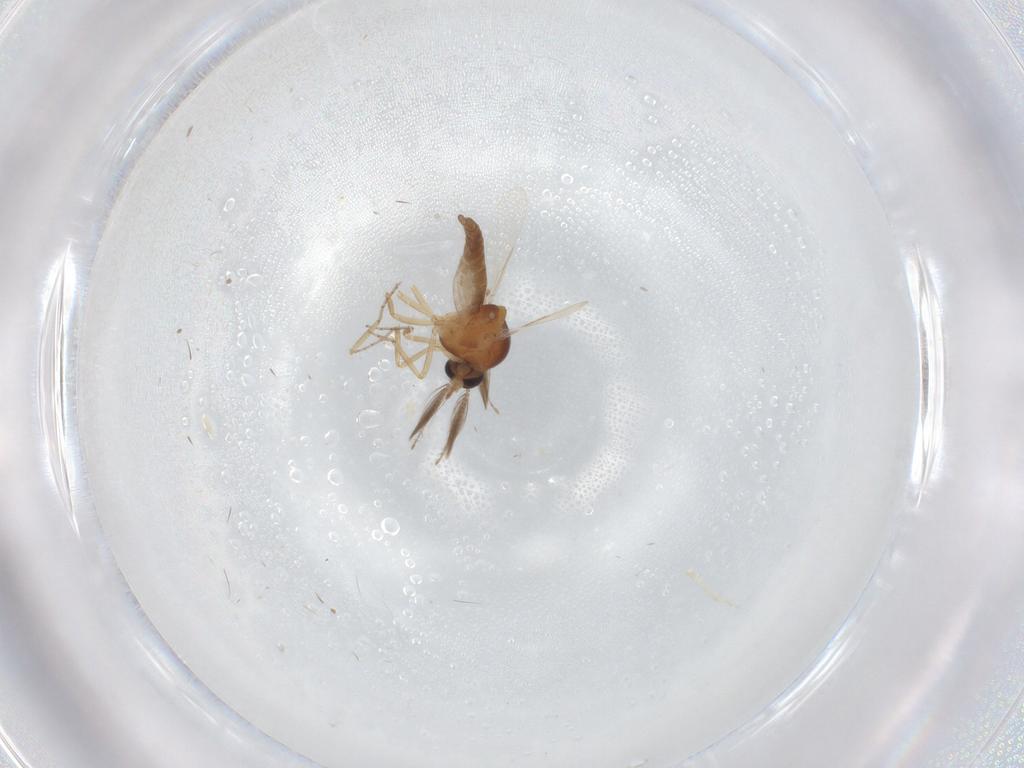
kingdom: Animalia
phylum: Arthropoda
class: Insecta
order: Diptera
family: Ceratopogonidae
